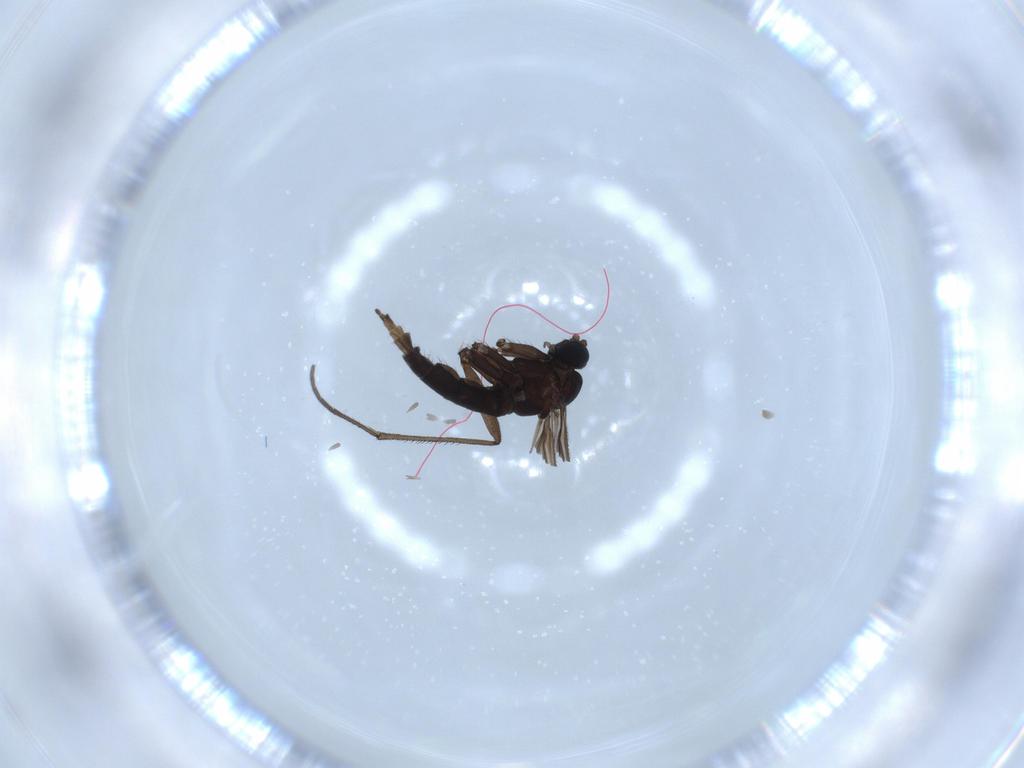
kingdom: Animalia
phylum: Arthropoda
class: Insecta
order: Diptera
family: Sciaridae
